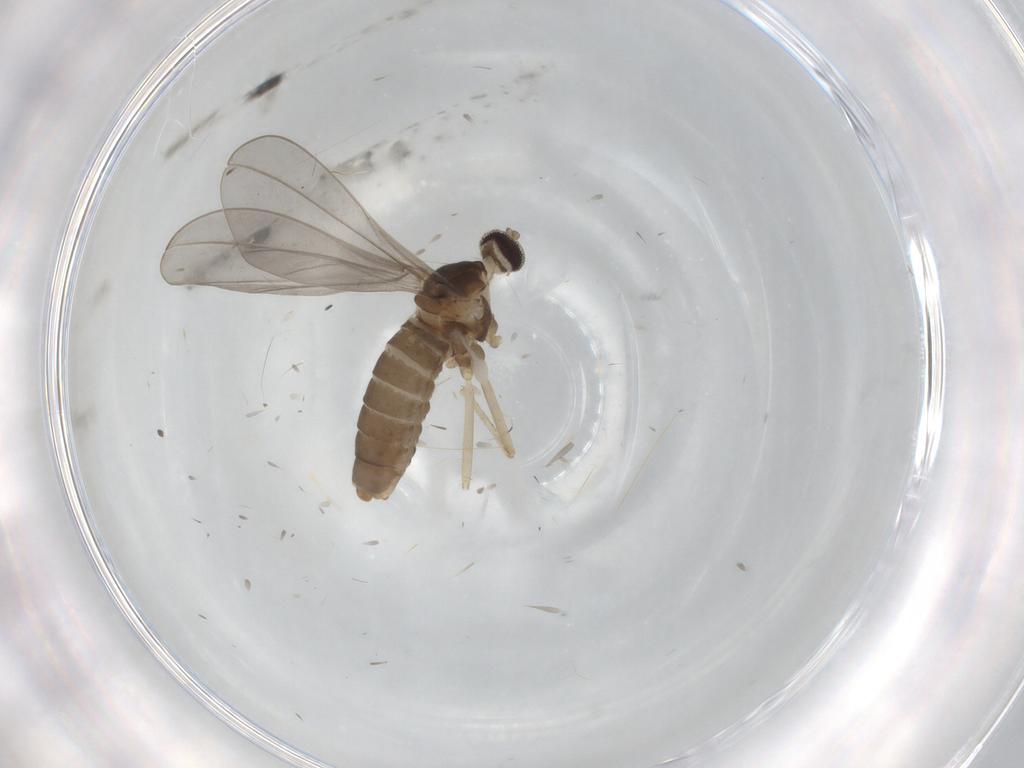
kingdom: Animalia
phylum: Arthropoda
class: Insecta
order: Diptera
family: Cecidomyiidae
